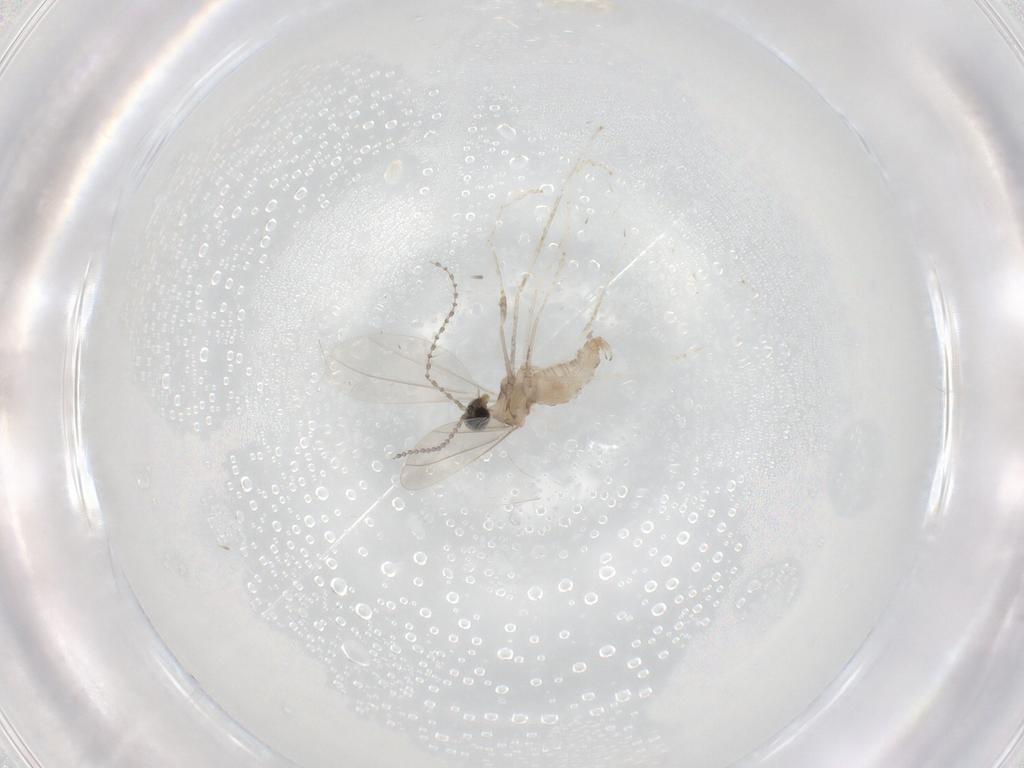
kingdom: Animalia
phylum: Arthropoda
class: Insecta
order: Diptera
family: Cecidomyiidae
